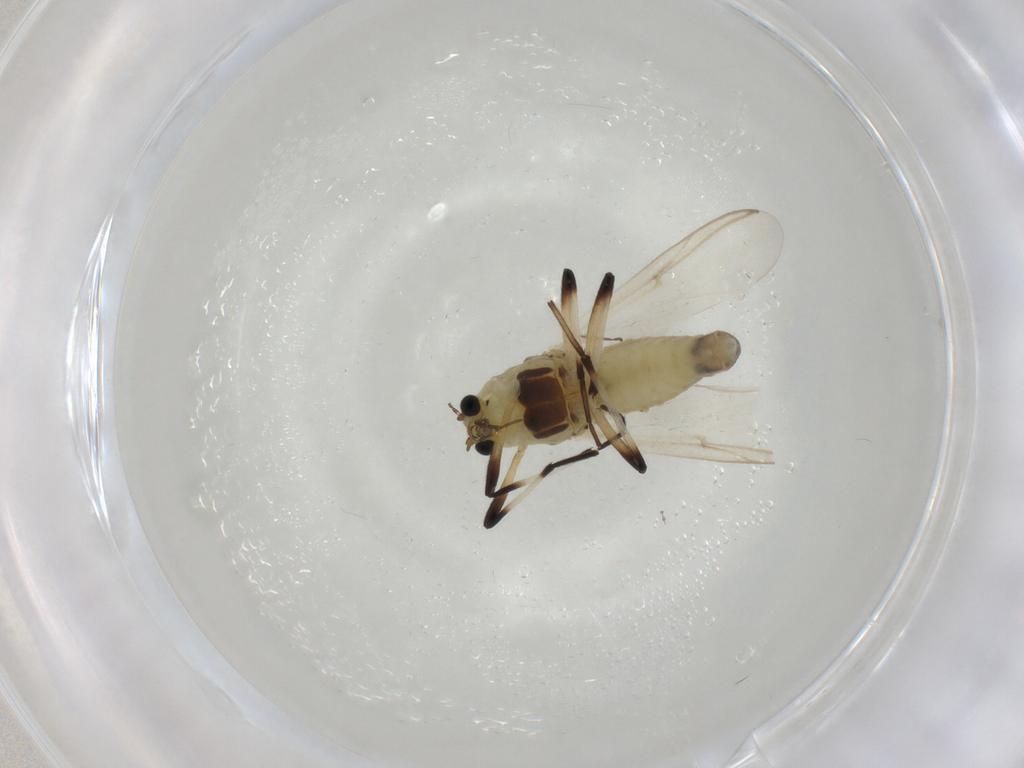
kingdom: Animalia
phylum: Arthropoda
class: Insecta
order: Diptera
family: Chironomidae
